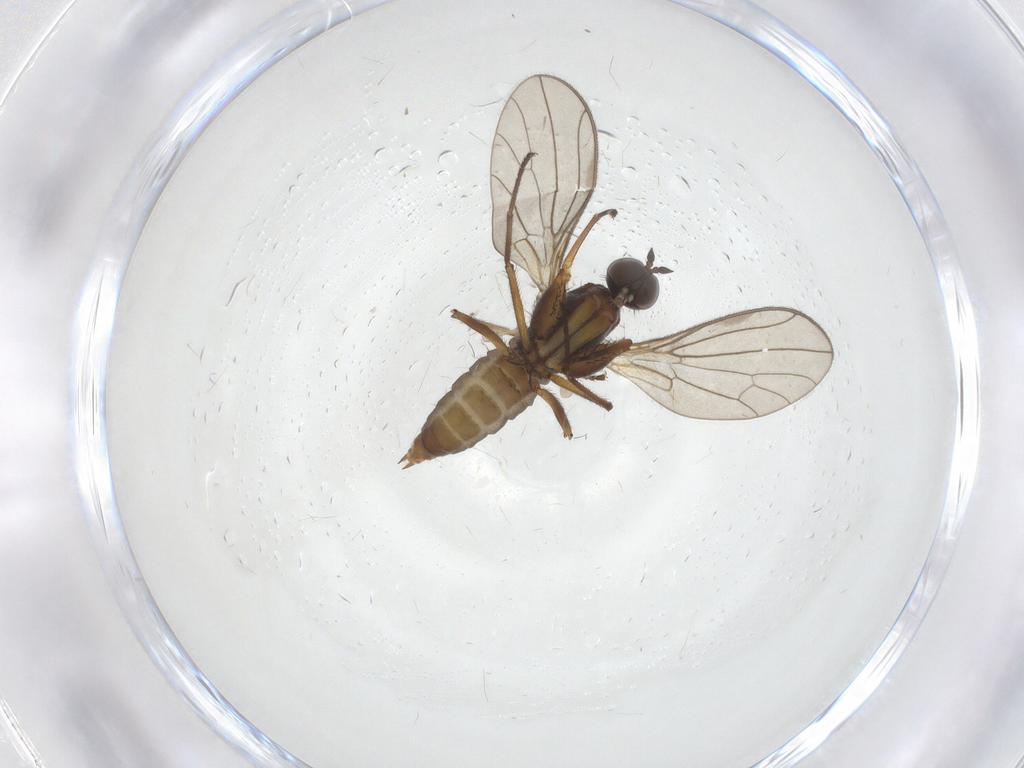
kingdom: Animalia
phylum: Arthropoda
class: Insecta
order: Diptera
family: Empididae
